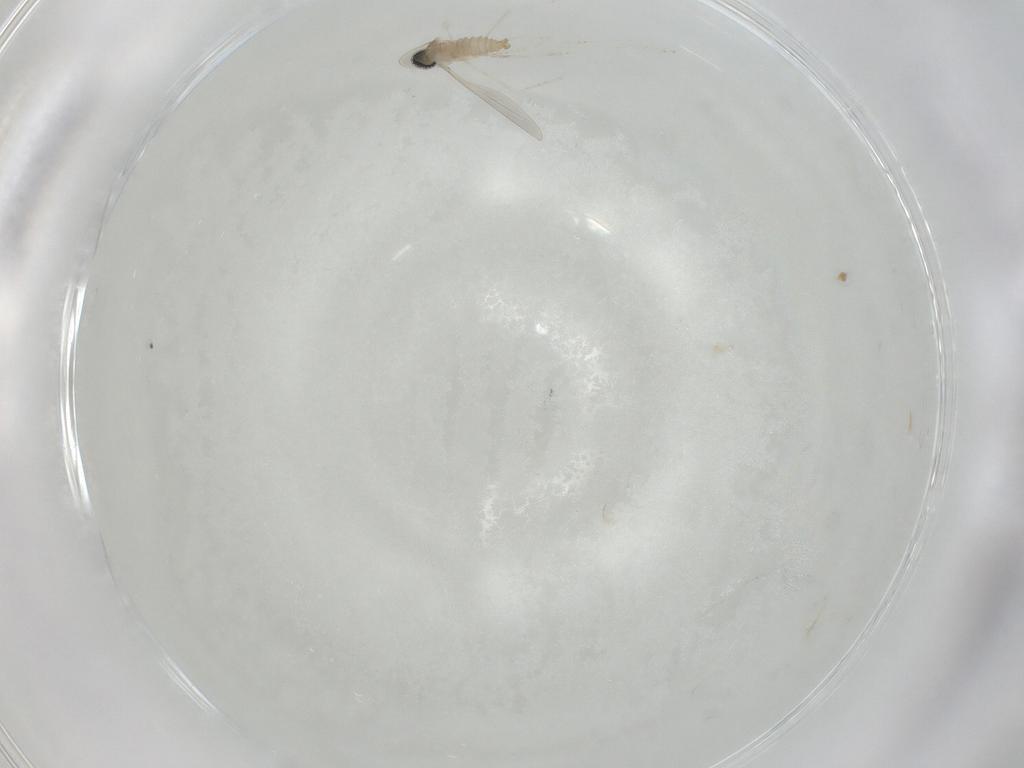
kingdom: Animalia
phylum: Arthropoda
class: Insecta
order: Diptera
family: Cecidomyiidae
